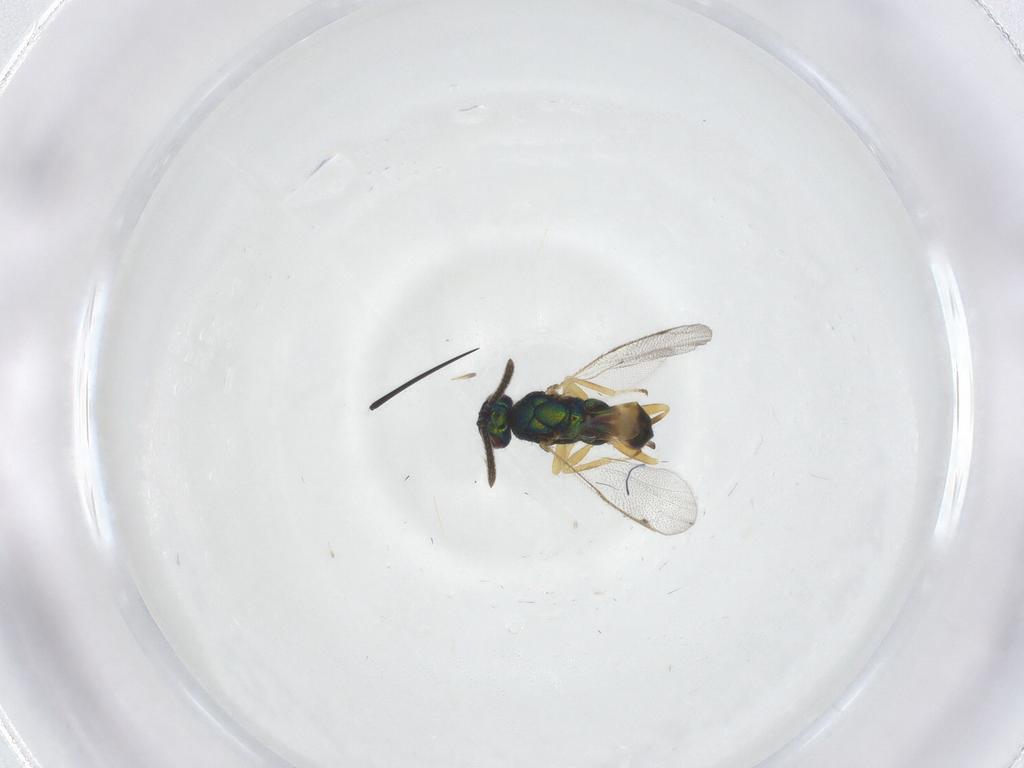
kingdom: Animalia
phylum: Arthropoda
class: Insecta
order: Hymenoptera
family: Torymidae
